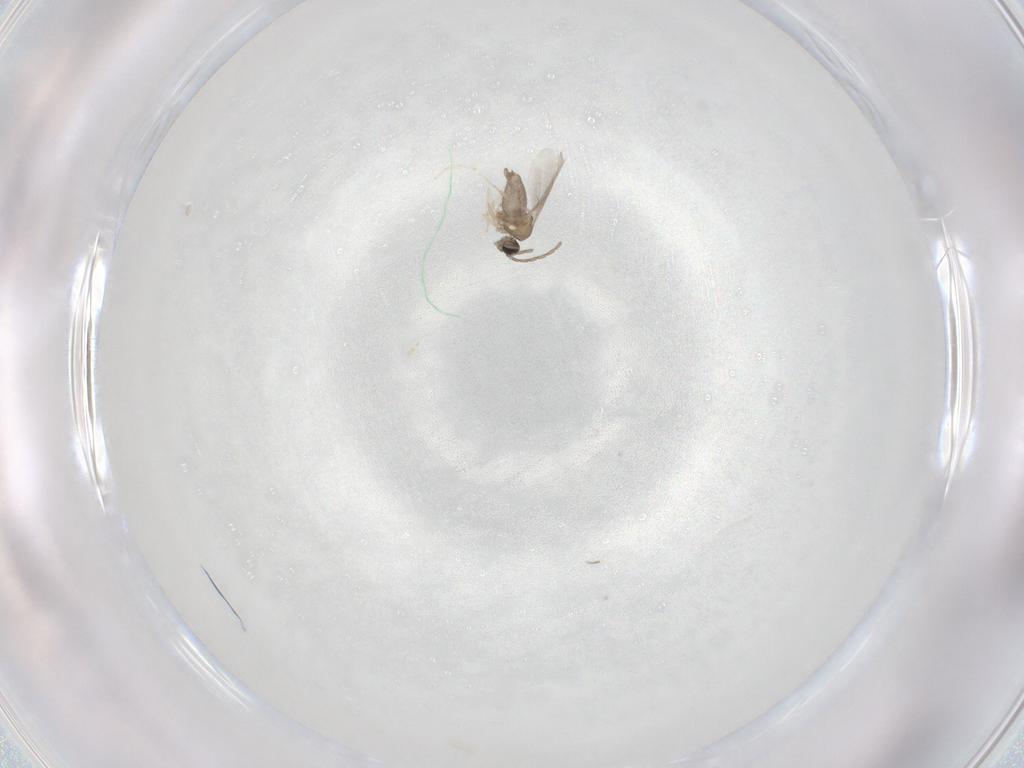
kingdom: Animalia
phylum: Arthropoda
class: Insecta
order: Diptera
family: Cecidomyiidae
